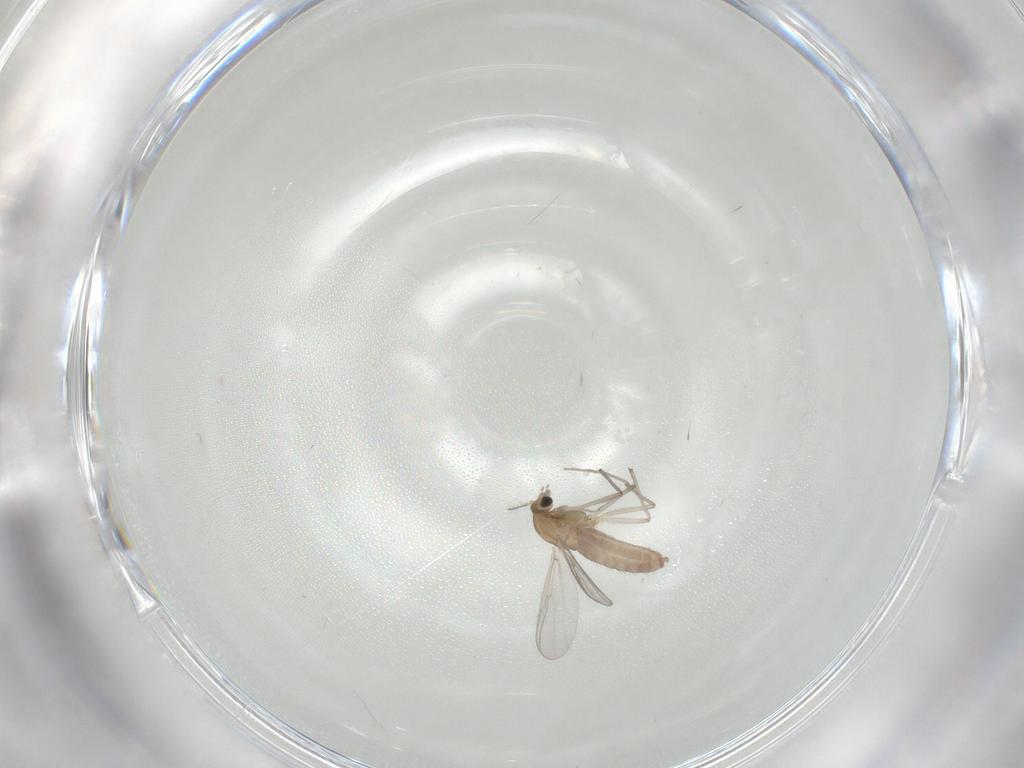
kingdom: Animalia
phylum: Arthropoda
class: Insecta
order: Diptera
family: Chironomidae
